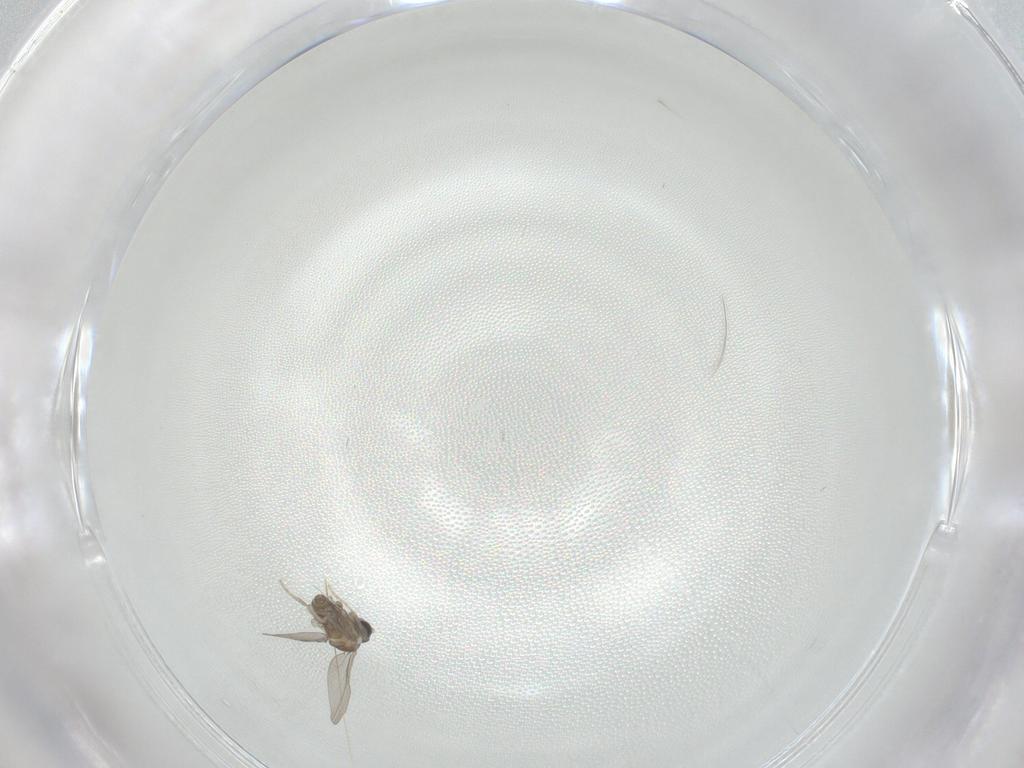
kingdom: Animalia
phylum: Arthropoda
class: Insecta
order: Diptera
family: Cecidomyiidae
